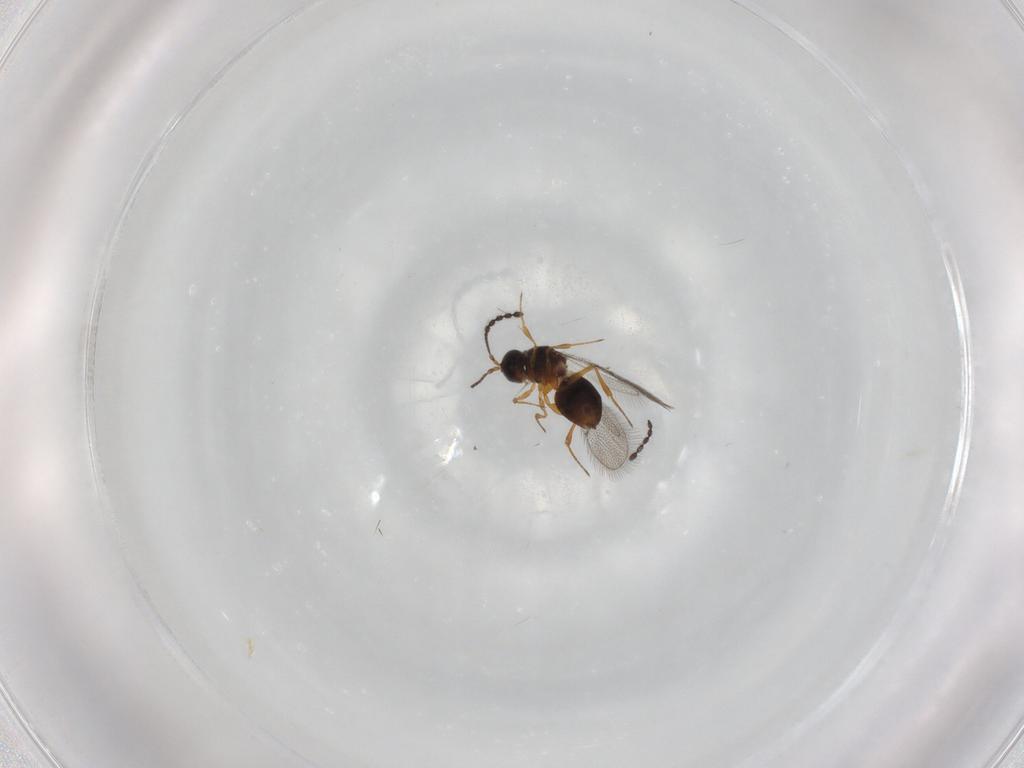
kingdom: Animalia
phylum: Arthropoda
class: Insecta
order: Hymenoptera
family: Figitidae
